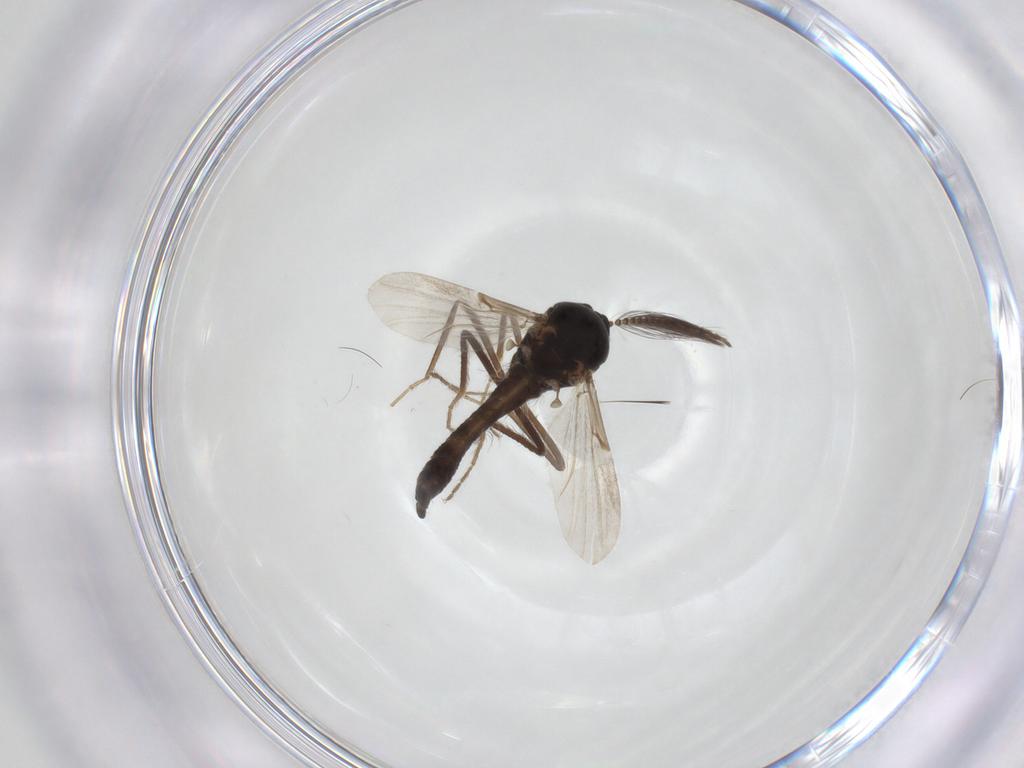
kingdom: Animalia
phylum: Arthropoda
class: Insecta
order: Diptera
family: Ceratopogonidae
